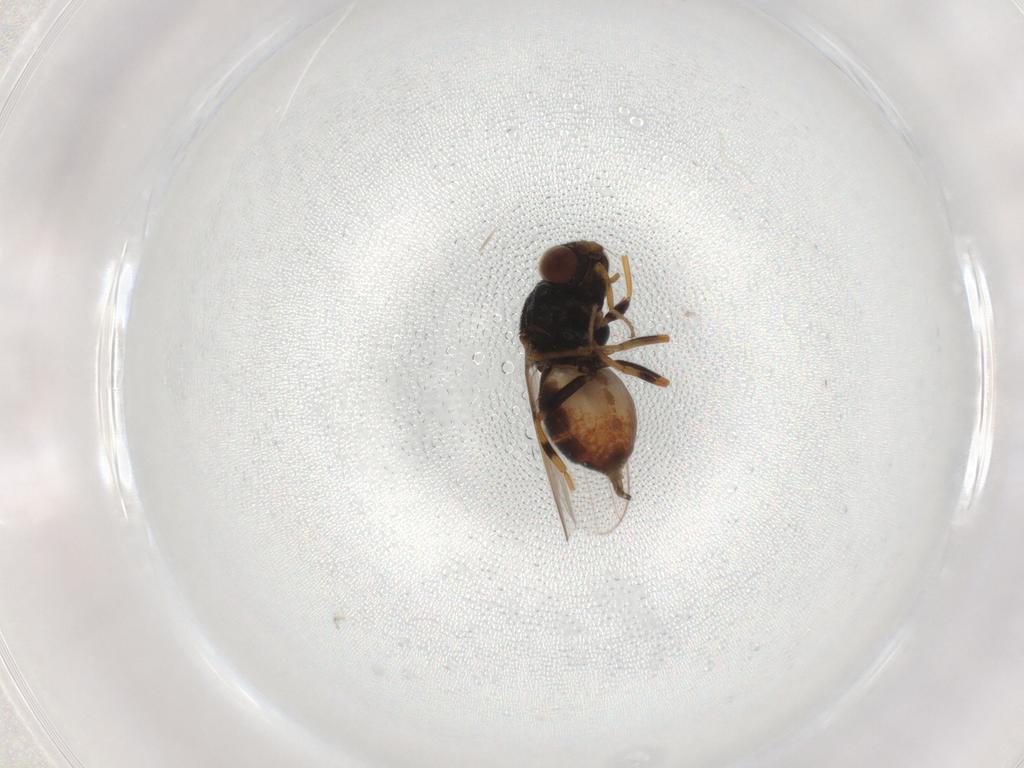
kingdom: Animalia
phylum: Arthropoda
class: Insecta
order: Diptera
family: Chloropidae
